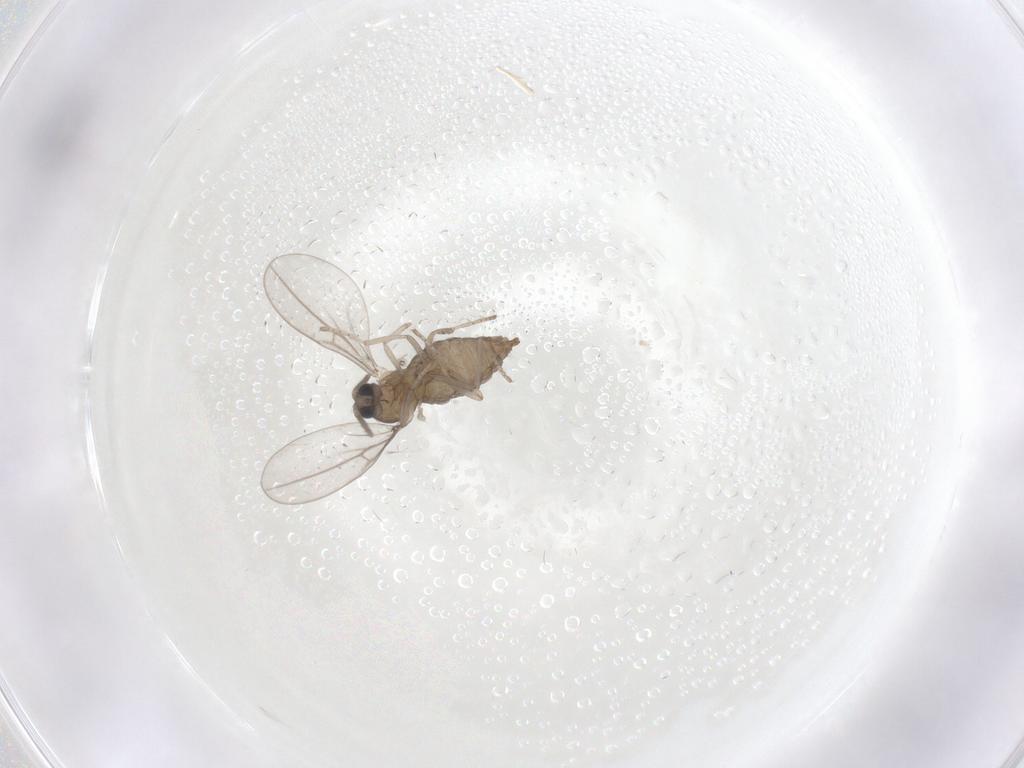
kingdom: Animalia
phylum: Arthropoda
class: Insecta
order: Diptera
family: Cecidomyiidae
